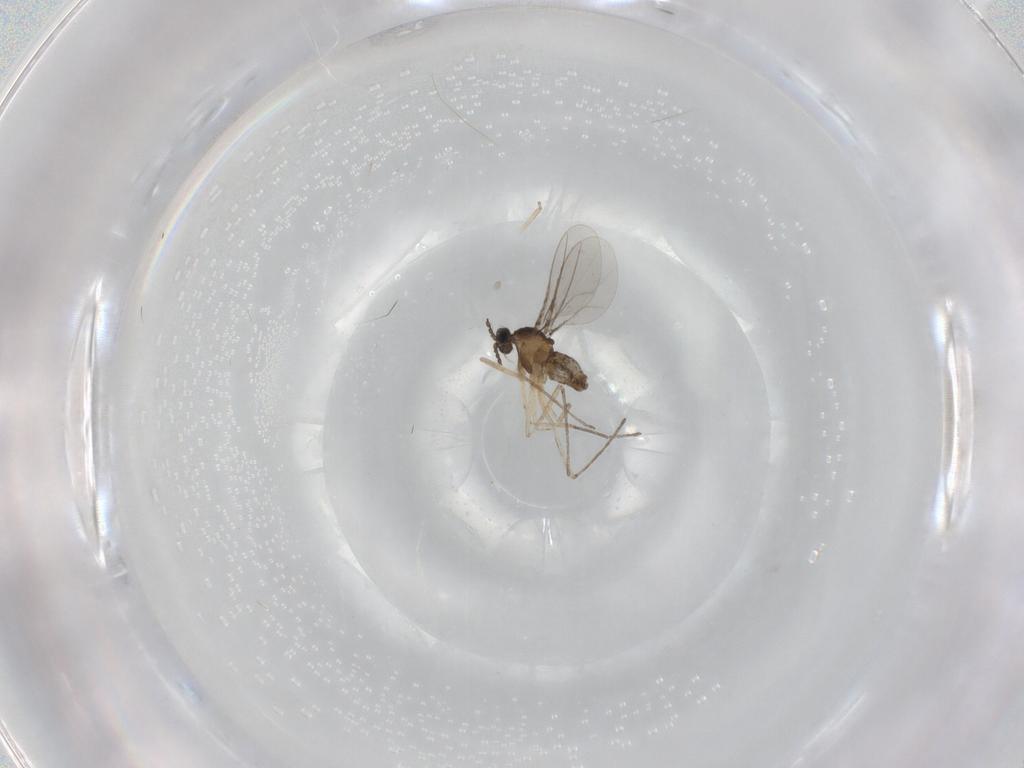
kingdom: Animalia
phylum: Arthropoda
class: Insecta
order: Diptera
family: Cecidomyiidae
